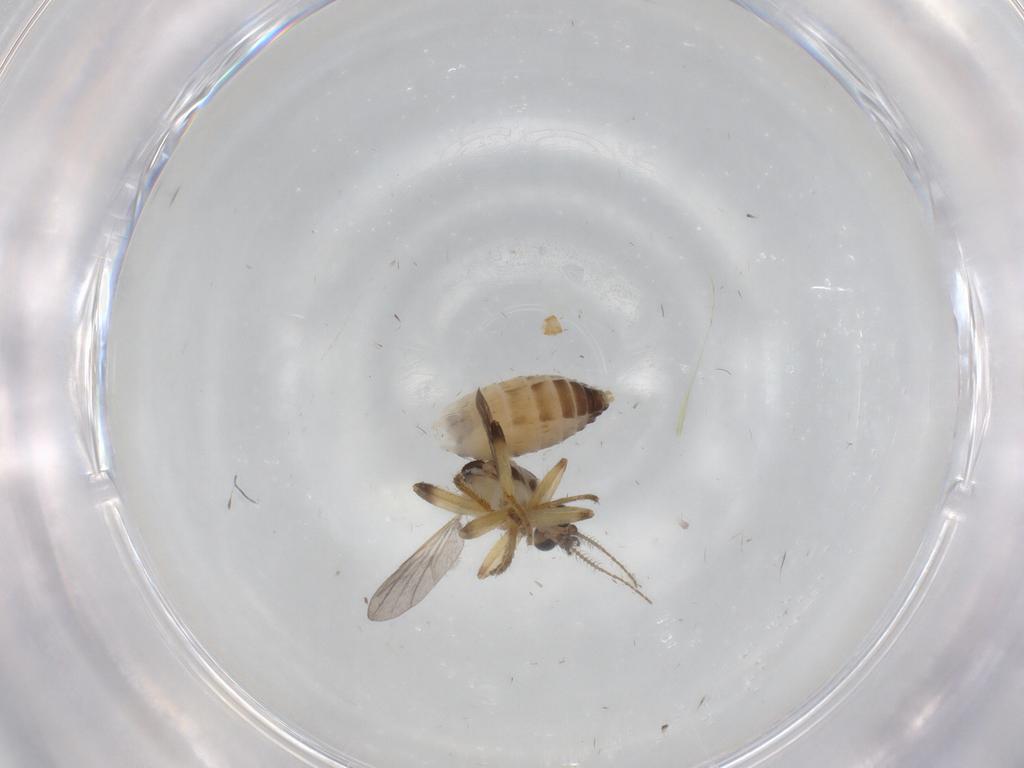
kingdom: Animalia
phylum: Arthropoda
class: Insecta
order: Diptera
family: Ceratopogonidae
